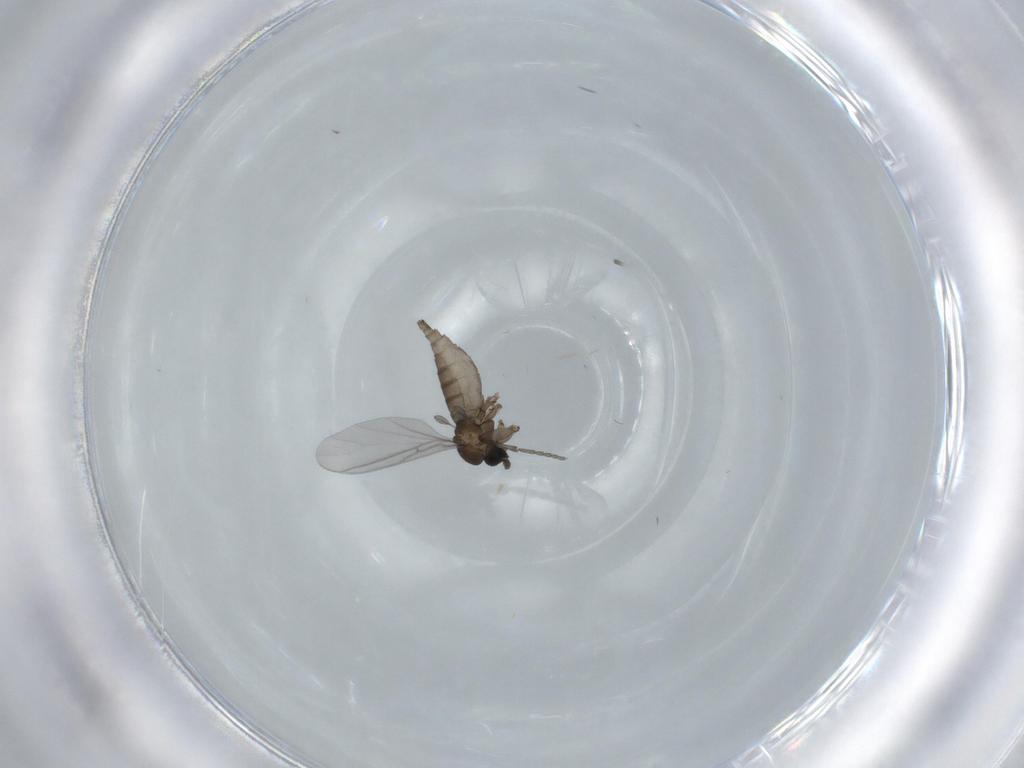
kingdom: Animalia
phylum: Arthropoda
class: Insecta
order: Diptera
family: Sciaridae
